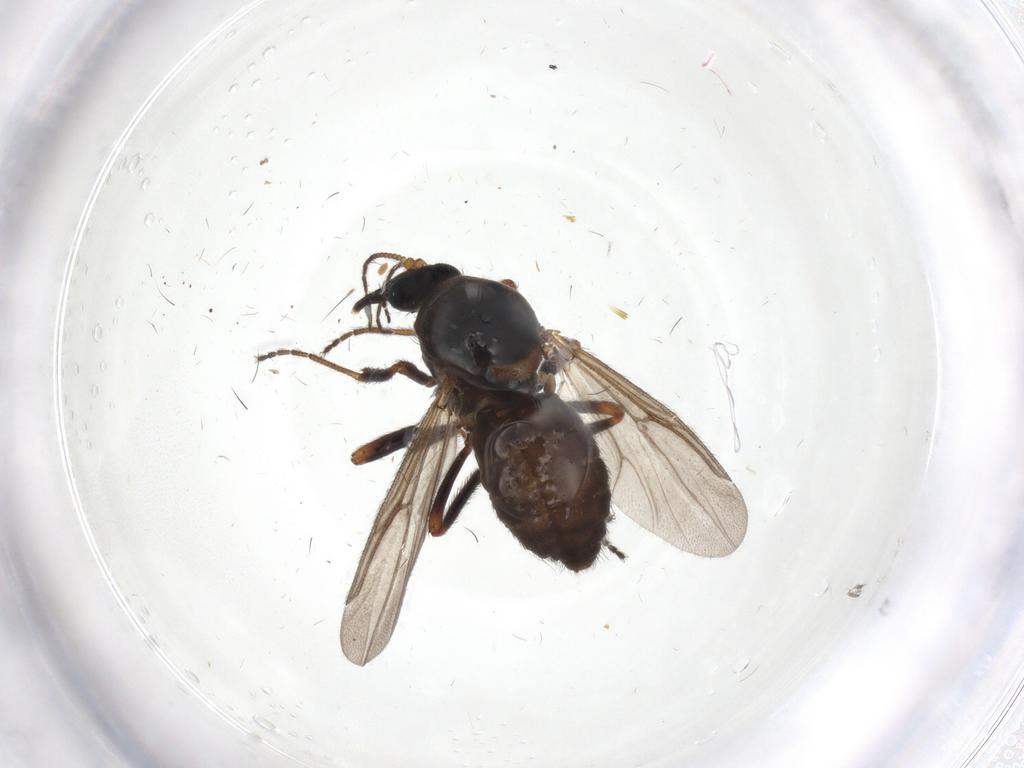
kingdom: Animalia
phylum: Arthropoda
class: Insecta
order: Diptera
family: Ceratopogonidae
